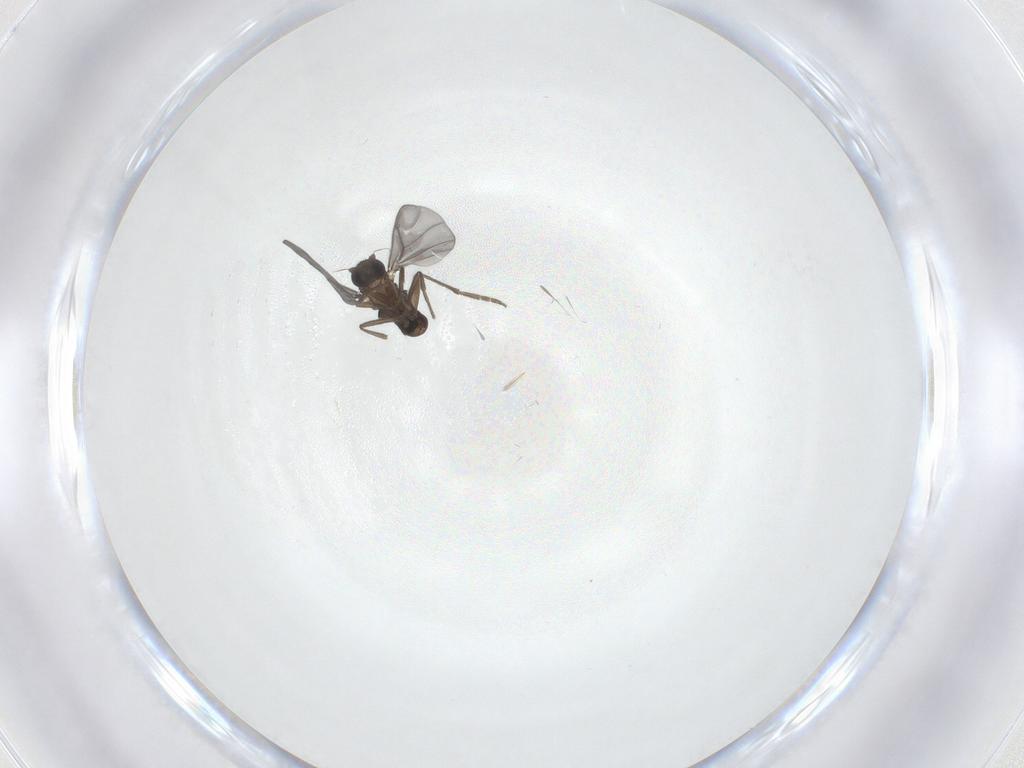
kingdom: Animalia
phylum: Arthropoda
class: Insecta
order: Diptera
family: Phoridae
